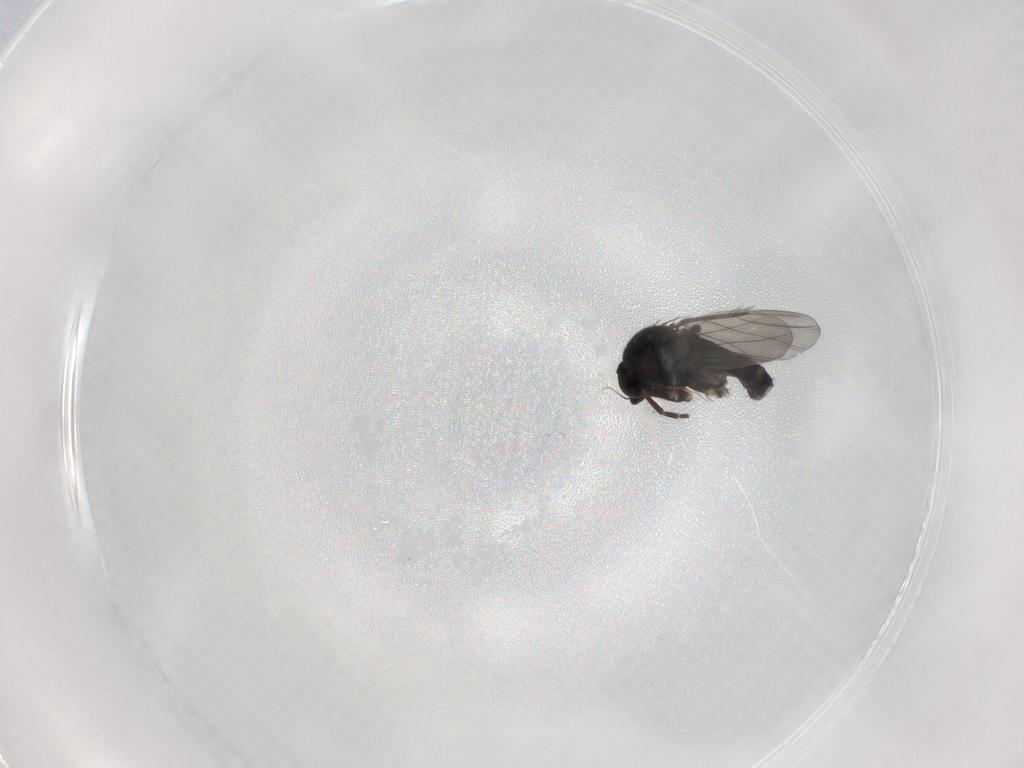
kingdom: Animalia
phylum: Arthropoda
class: Insecta
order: Diptera
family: Phoridae
